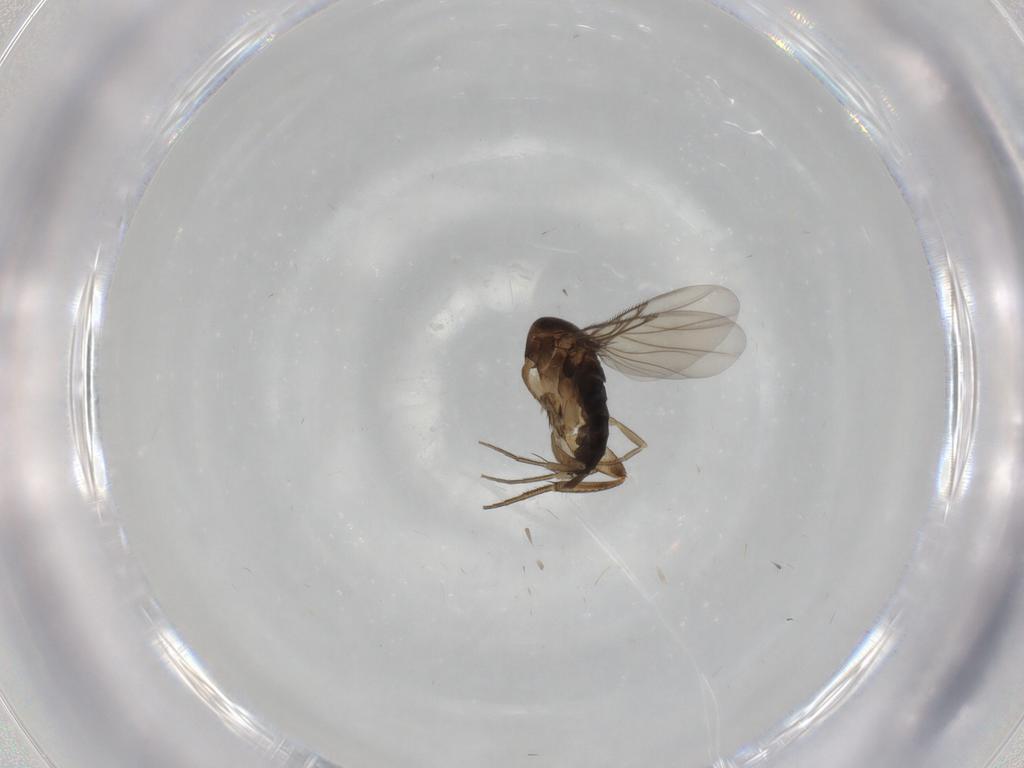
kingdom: Animalia
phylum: Arthropoda
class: Insecta
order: Diptera
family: Phoridae
